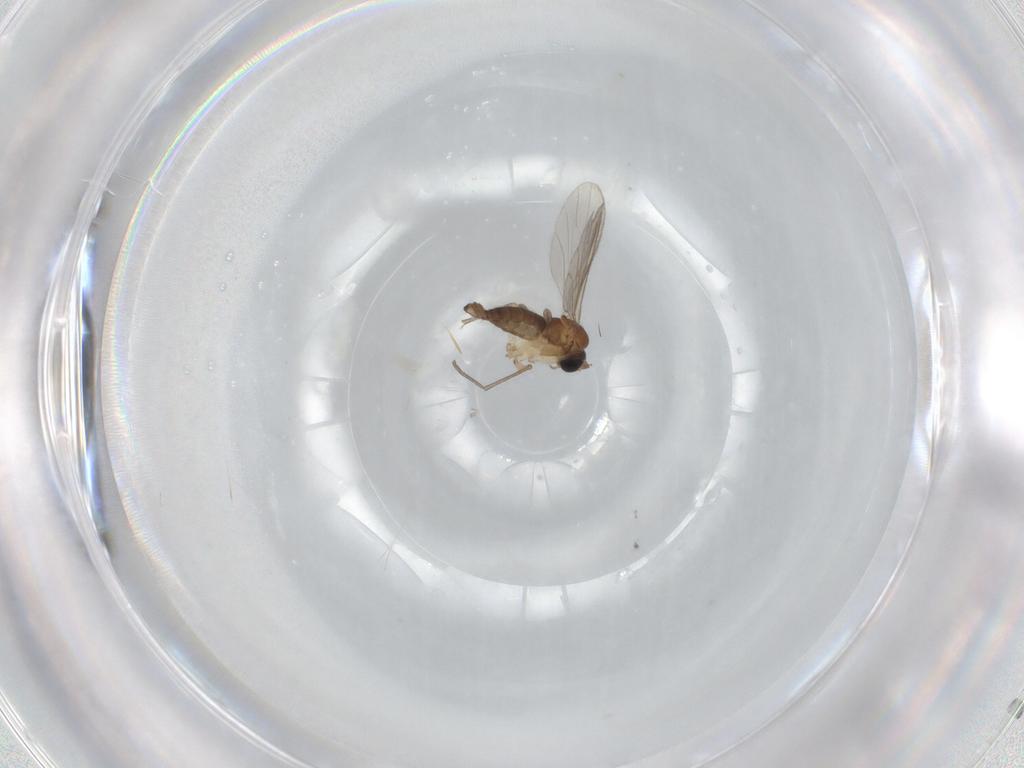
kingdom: Animalia
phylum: Arthropoda
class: Insecta
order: Diptera
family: Sciaridae
